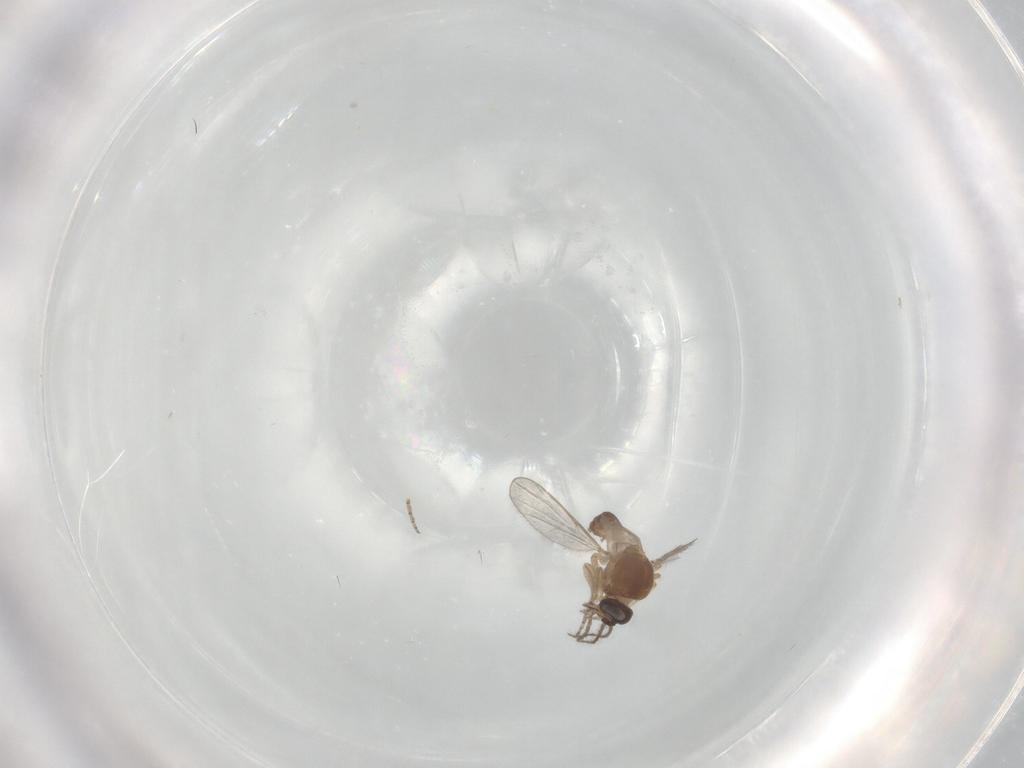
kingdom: Animalia
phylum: Arthropoda
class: Insecta
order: Diptera
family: Ceratopogonidae
